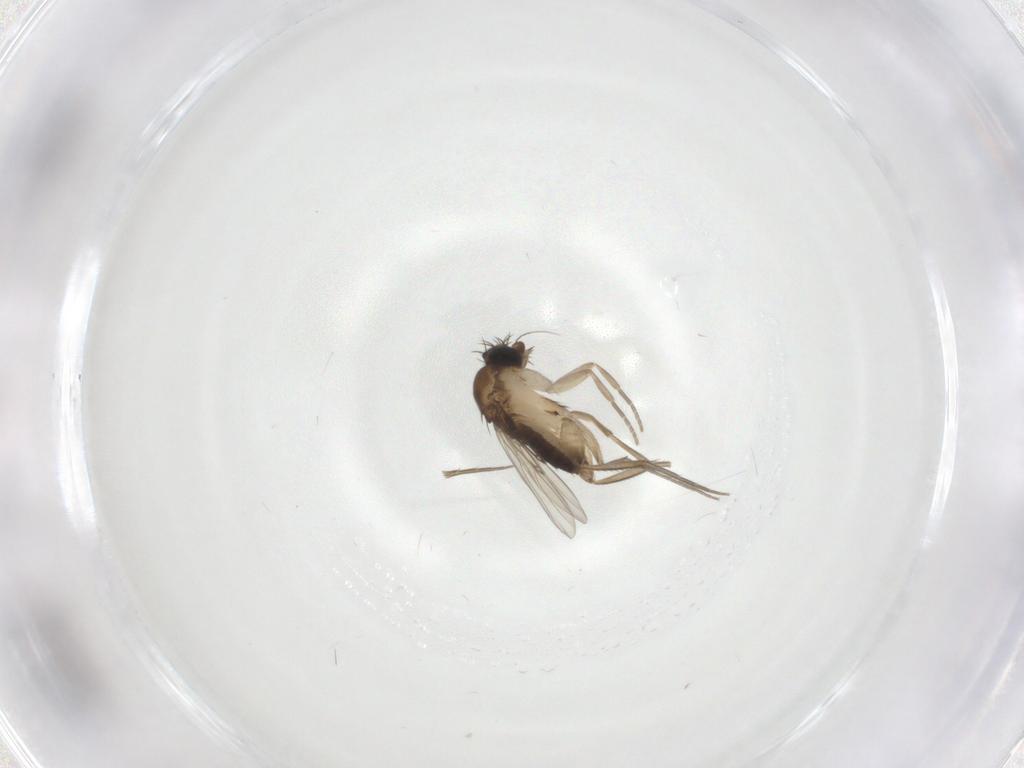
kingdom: Animalia
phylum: Arthropoda
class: Insecta
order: Diptera
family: Phoridae
